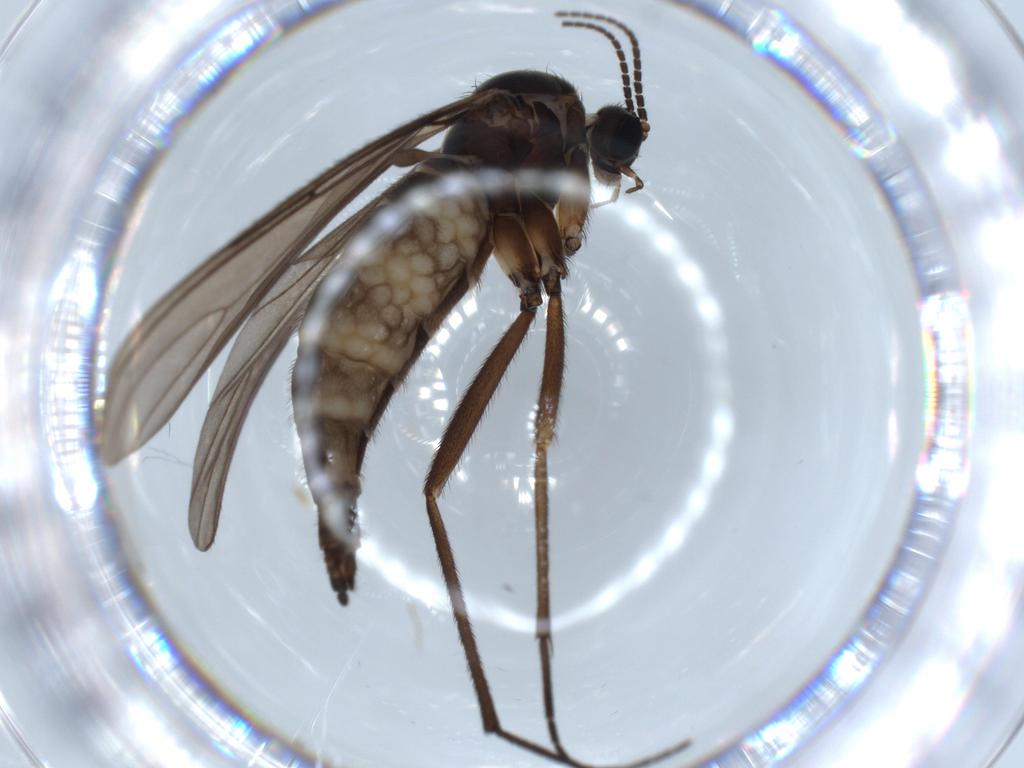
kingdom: Animalia
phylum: Arthropoda
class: Insecta
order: Diptera
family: Sciaridae
